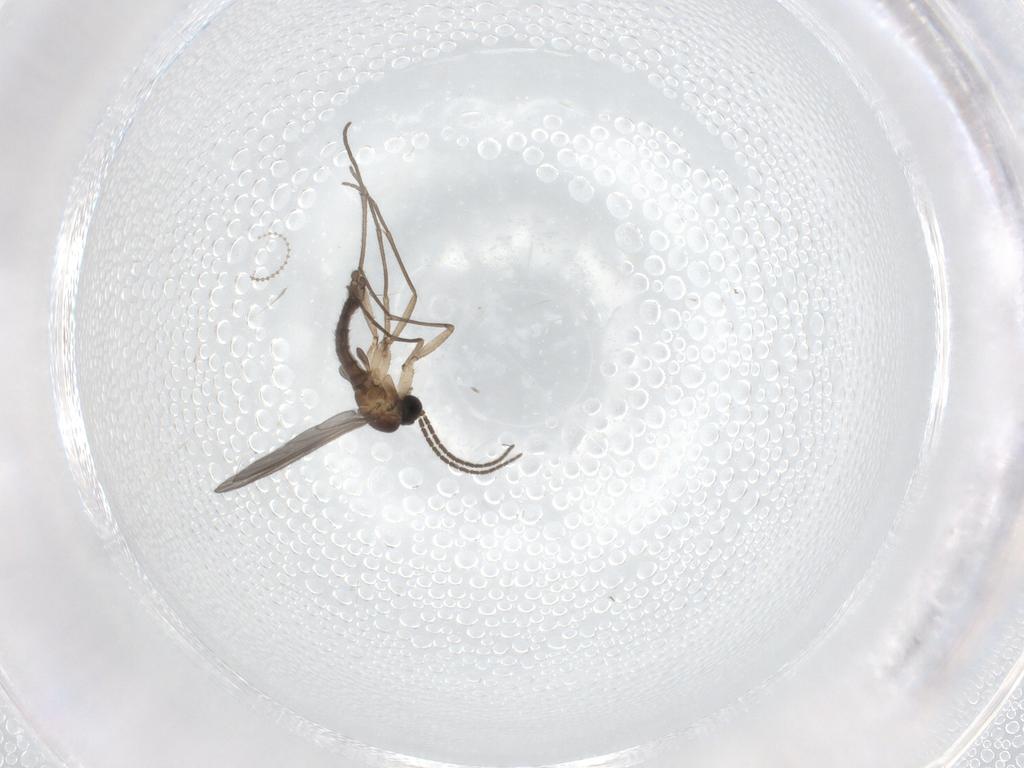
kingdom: Animalia
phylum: Arthropoda
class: Insecta
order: Diptera
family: Sciaridae
